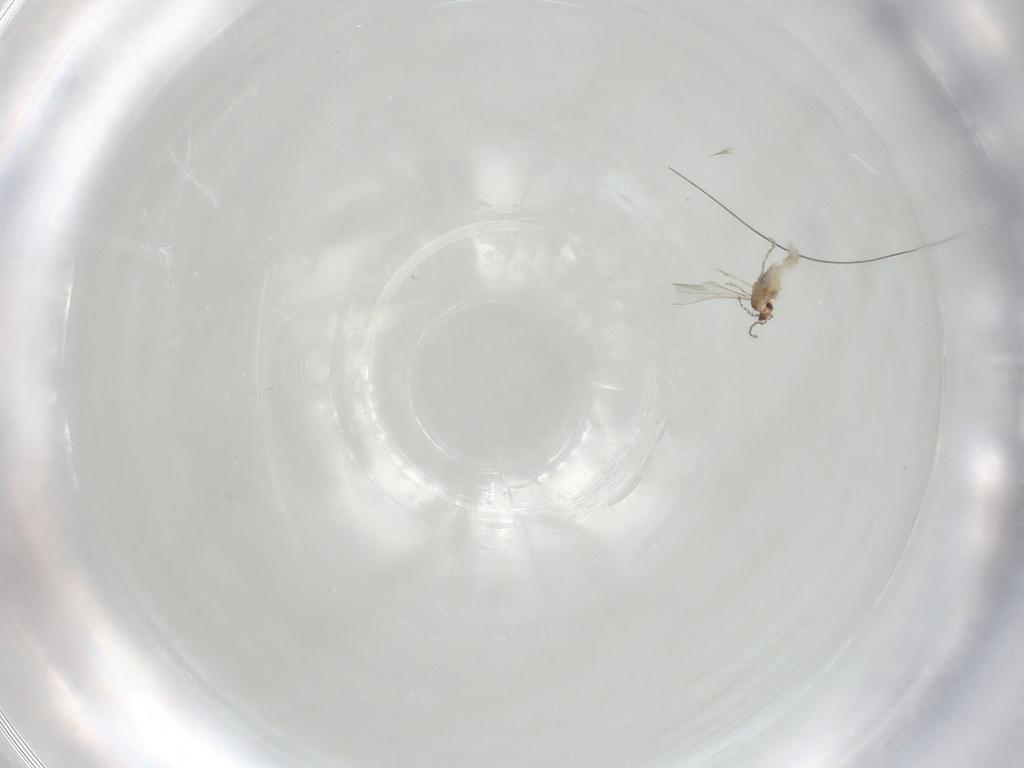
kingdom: Animalia
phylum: Arthropoda
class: Insecta
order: Diptera
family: Cecidomyiidae
